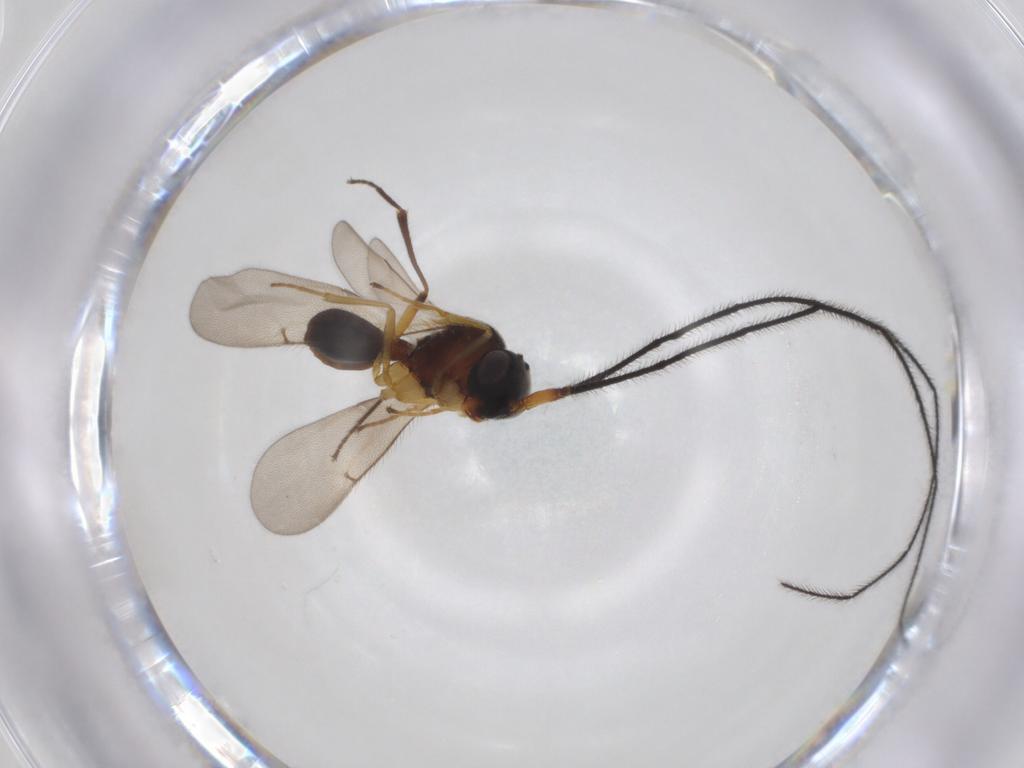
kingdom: Animalia
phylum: Arthropoda
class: Insecta
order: Hymenoptera
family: Scelionidae
